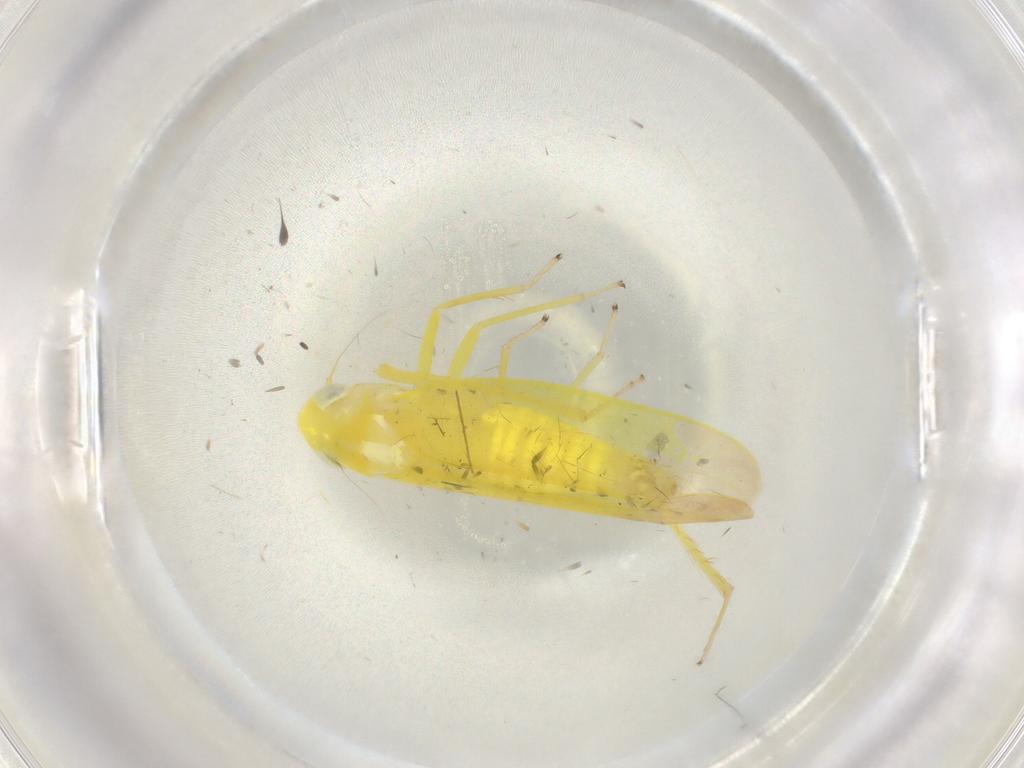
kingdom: Animalia
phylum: Arthropoda
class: Insecta
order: Hemiptera
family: Cicadellidae
